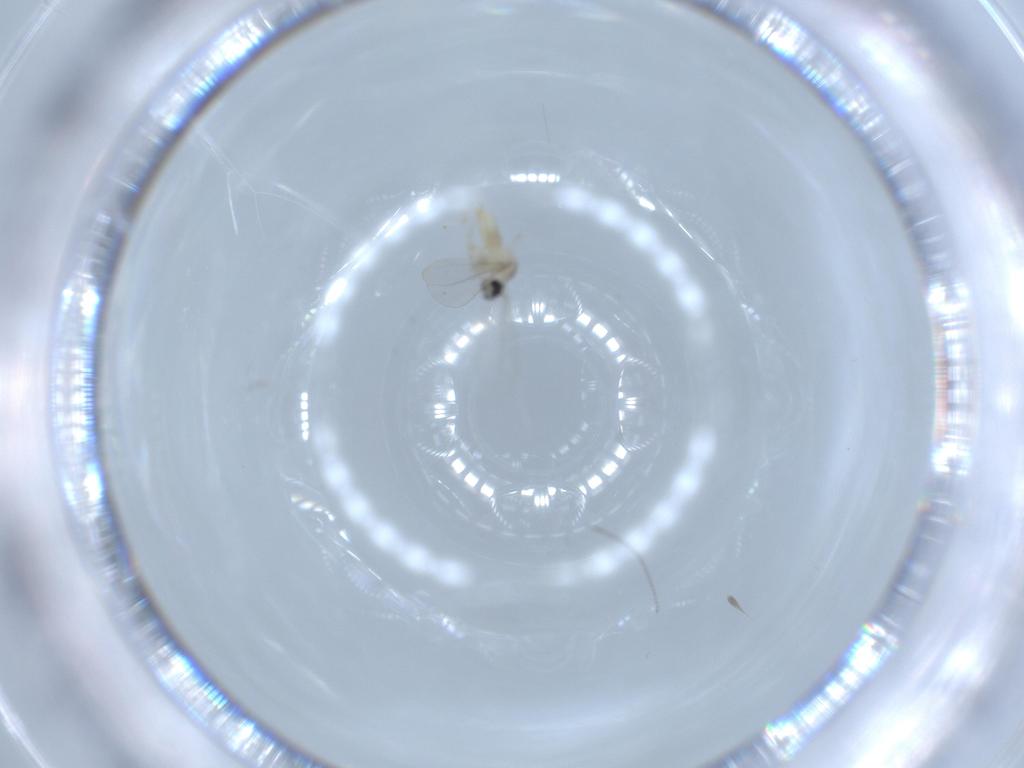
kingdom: Animalia
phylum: Arthropoda
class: Insecta
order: Diptera
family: Cecidomyiidae
